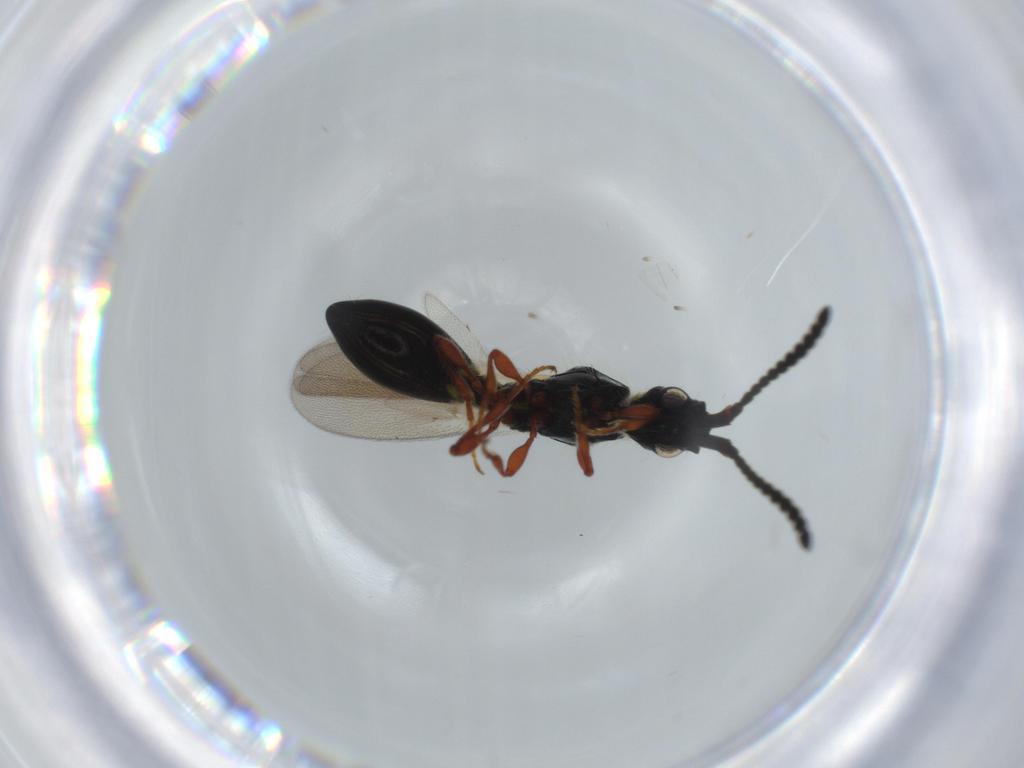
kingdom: Animalia
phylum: Arthropoda
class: Insecta
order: Hymenoptera
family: Diapriidae
